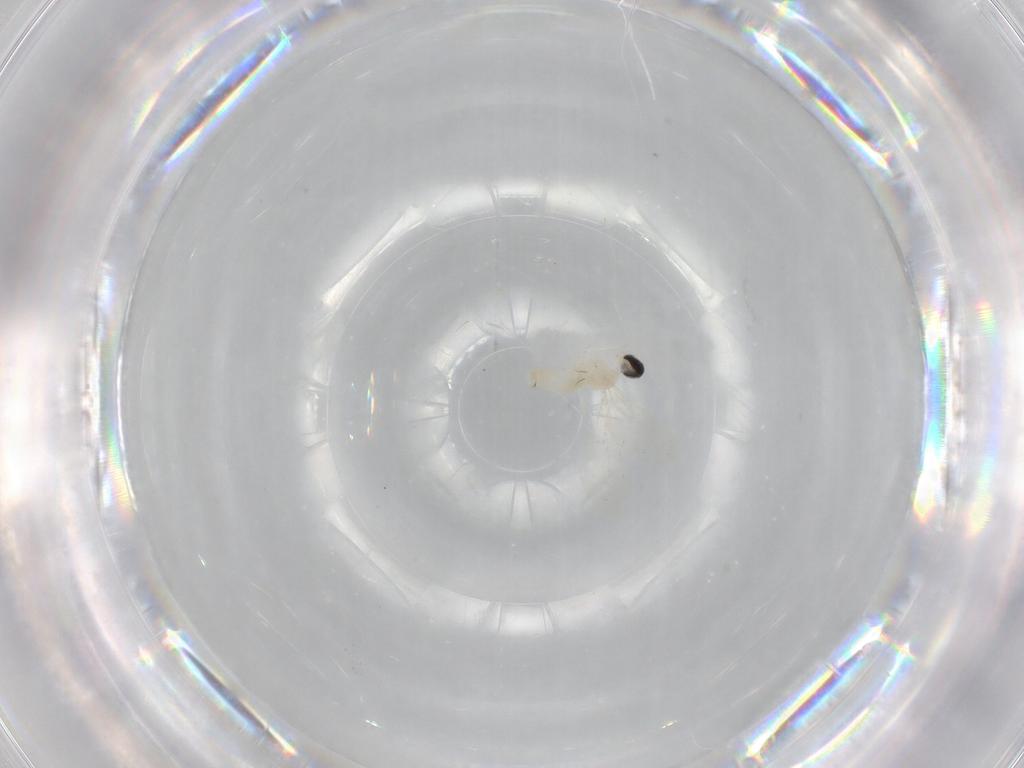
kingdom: Animalia
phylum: Arthropoda
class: Insecta
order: Diptera
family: Cecidomyiidae
